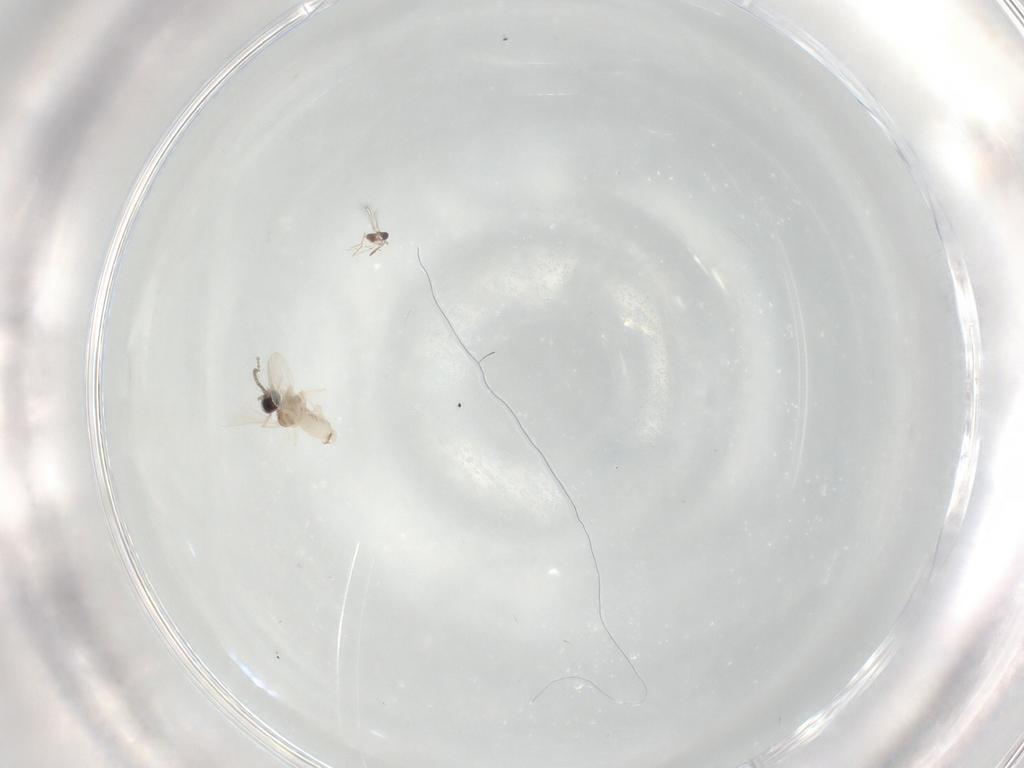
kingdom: Animalia
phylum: Arthropoda
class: Insecta
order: Diptera
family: Cecidomyiidae
